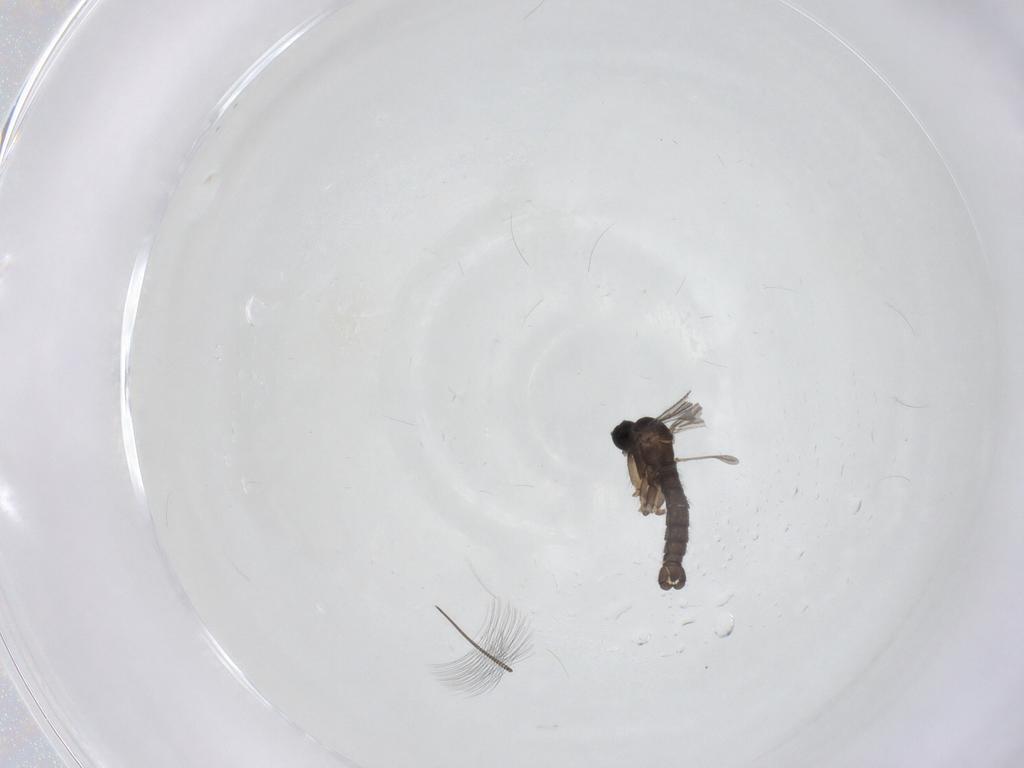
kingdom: Animalia
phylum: Arthropoda
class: Insecta
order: Diptera
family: Sciaridae
